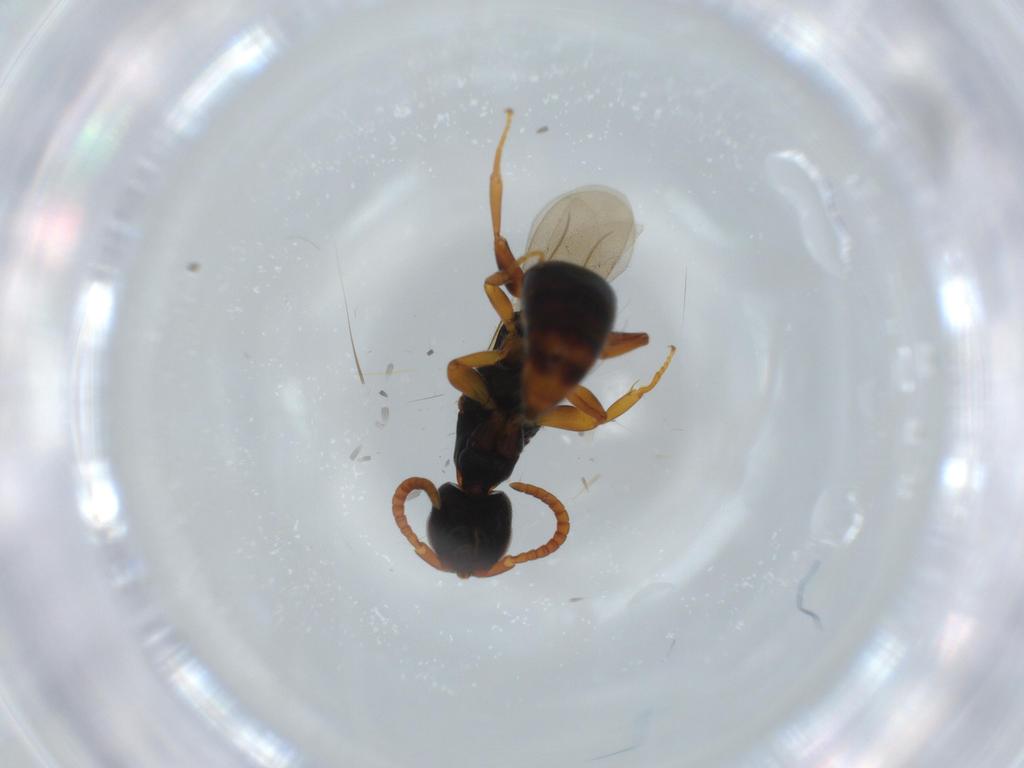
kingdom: Animalia
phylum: Arthropoda
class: Insecta
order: Hymenoptera
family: Bethylidae
